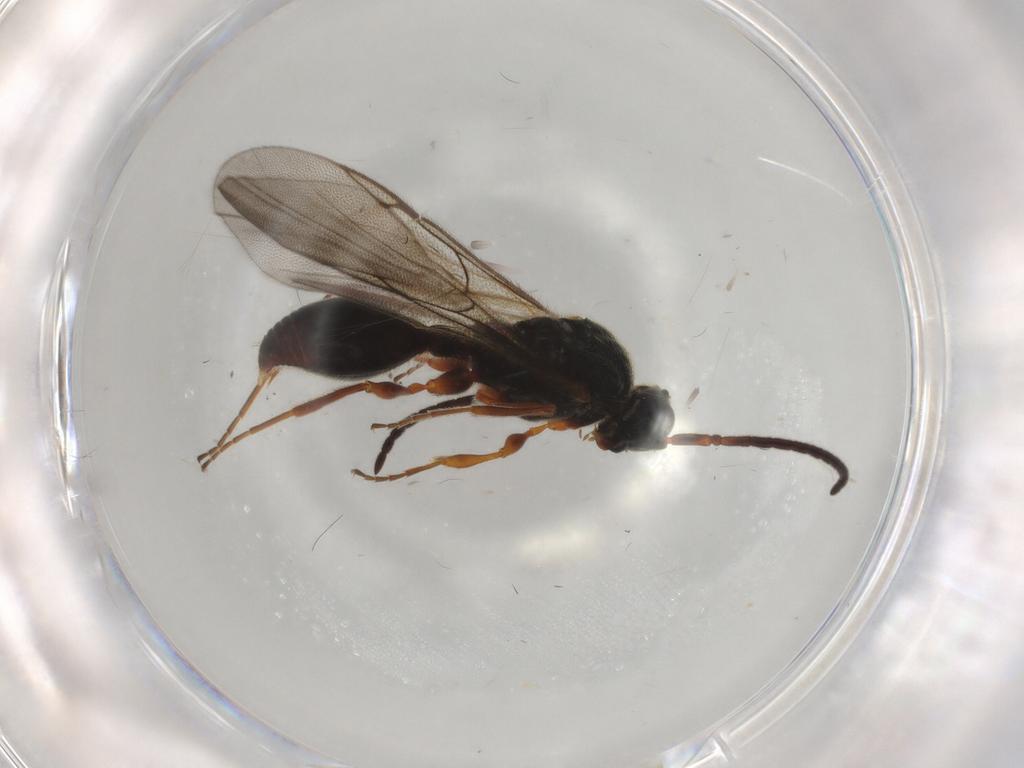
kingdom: Animalia
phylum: Arthropoda
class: Insecta
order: Hymenoptera
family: Diapriidae
